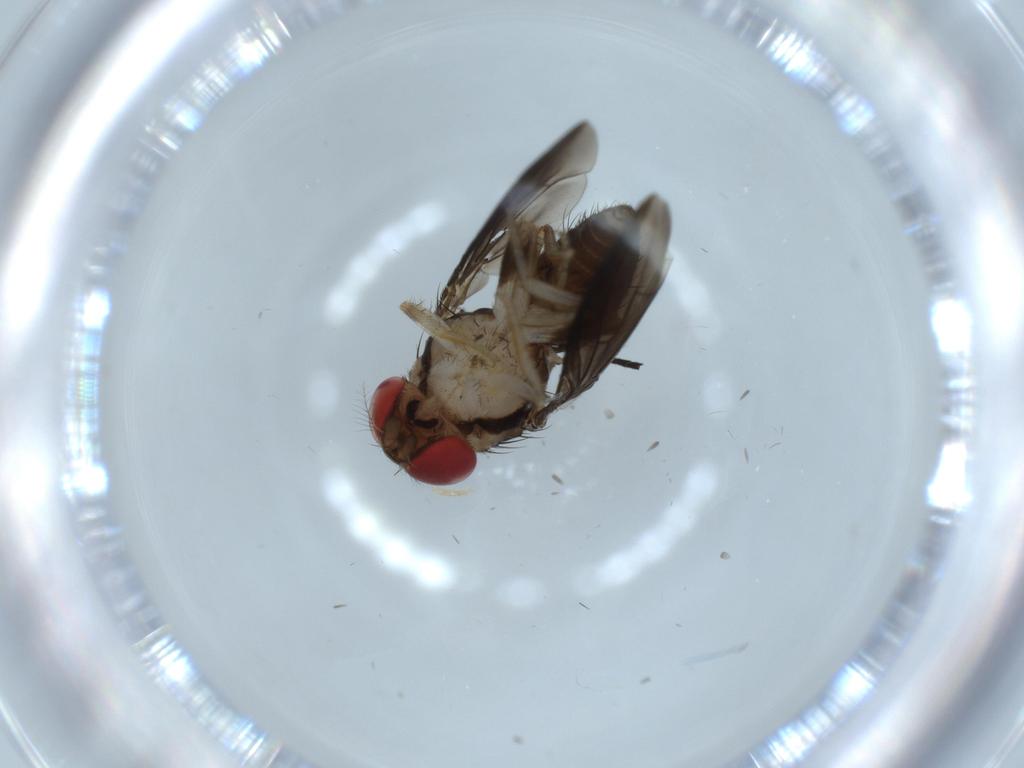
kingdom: Animalia
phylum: Arthropoda
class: Insecta
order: Diptera
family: Drosophilidae
